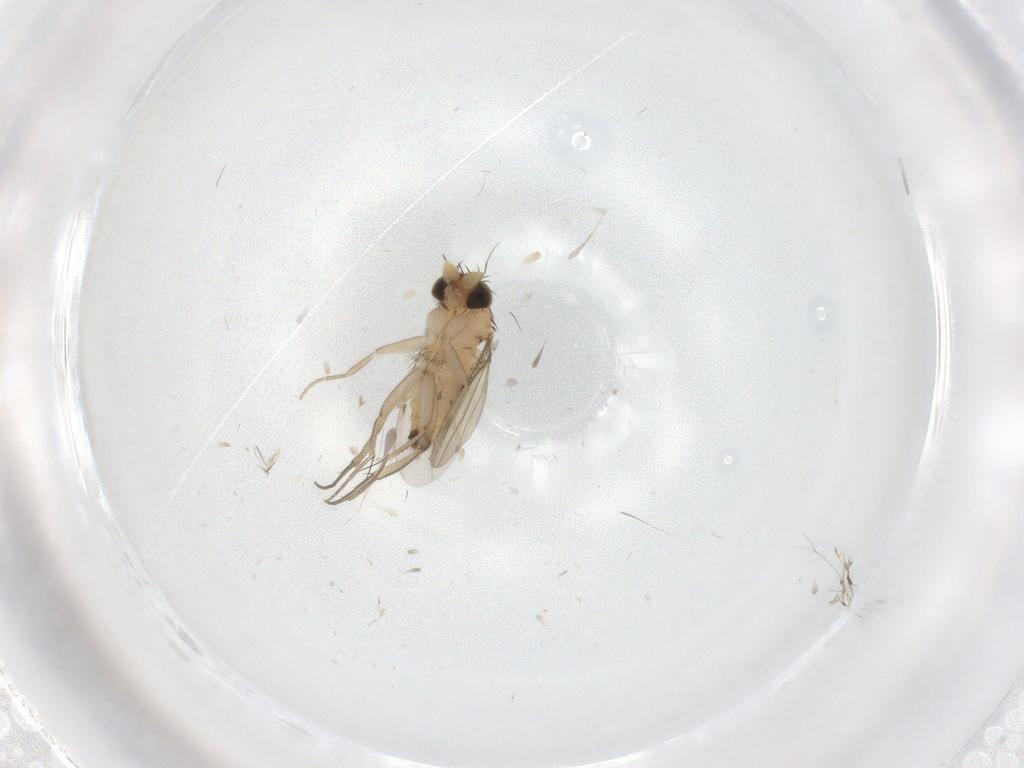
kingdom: Animalia
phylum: Arthropoda
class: Insecta
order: Diptera
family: Phoridae
